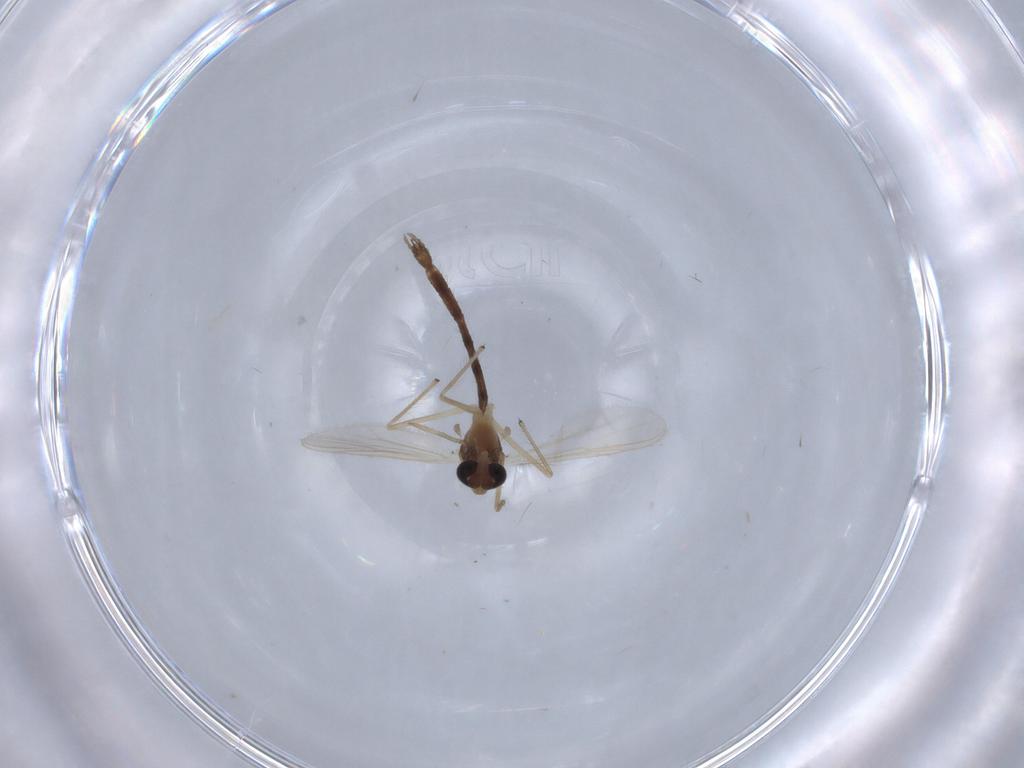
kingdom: Animalia
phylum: Arthropoda
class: Insecta
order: Diptera
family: Chironomidae
